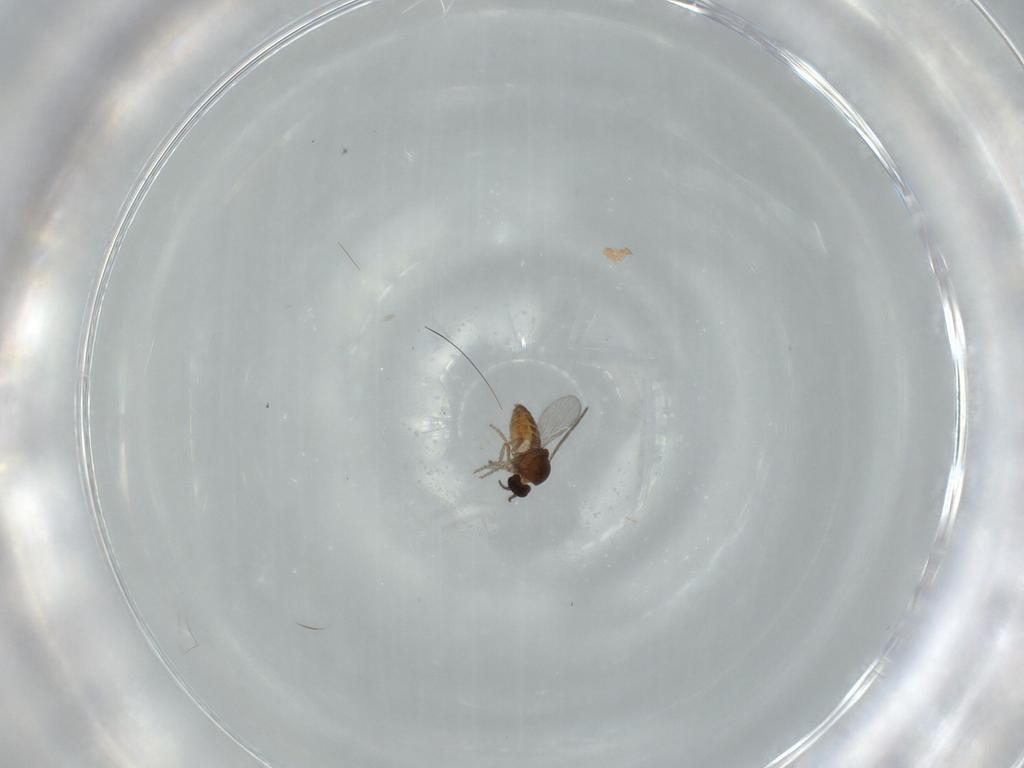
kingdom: Animalia
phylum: Arthropoda
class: Insecta
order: Diptera
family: Ceratopogonidae
